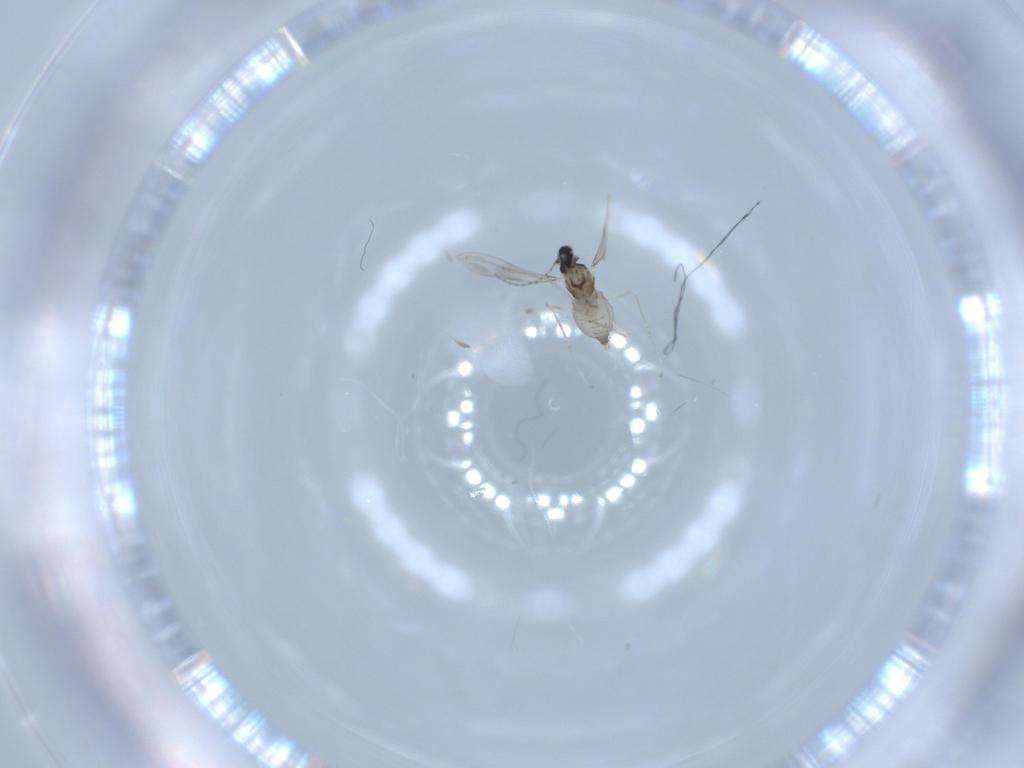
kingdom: Animalia
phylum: Arthropoda
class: Insecta
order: Diptera
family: Cecidomyiidae
